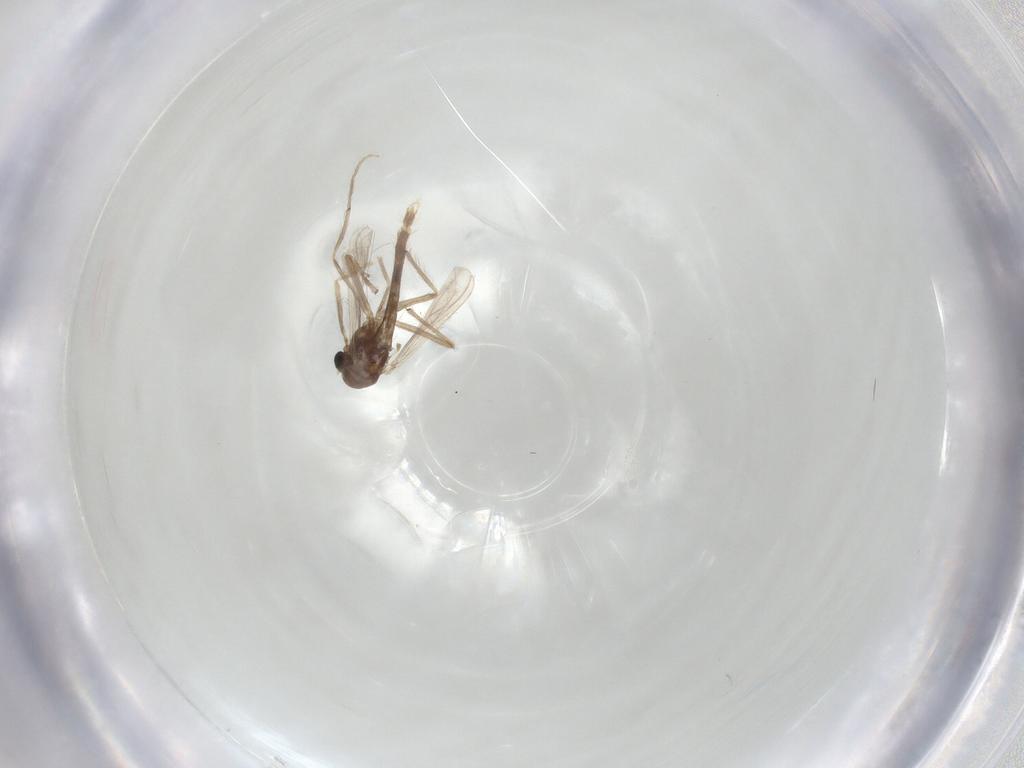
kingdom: Animalia
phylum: Arthropoda
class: Insecta
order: Diptera
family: Chironomidae
